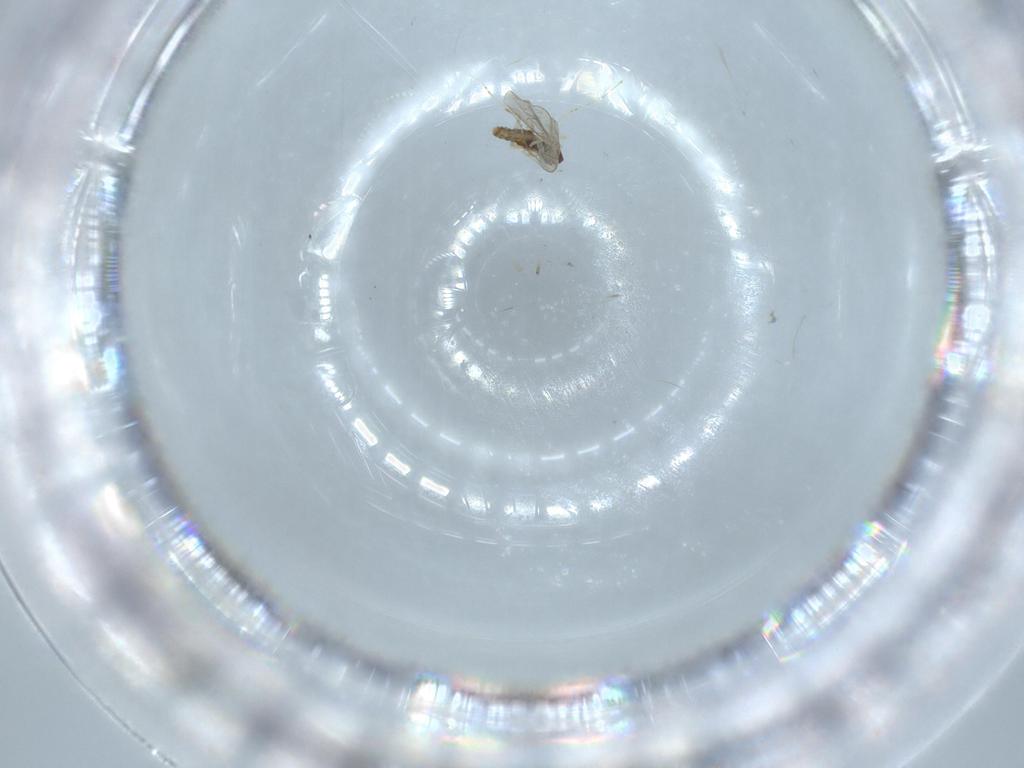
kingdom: Animalia
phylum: Arthropoda
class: Insecta
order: Diptera
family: Cecidomyiidae
